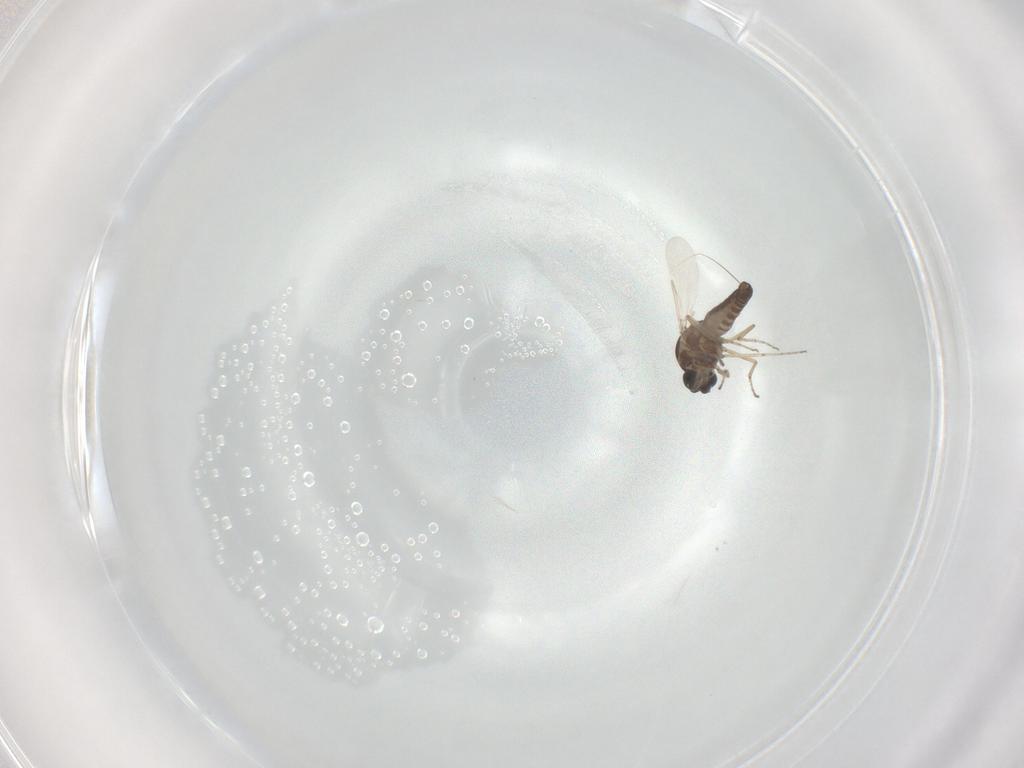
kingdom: Animalia
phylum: Arthropoda
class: Insecta
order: Diptera
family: Ceratopogonidae
